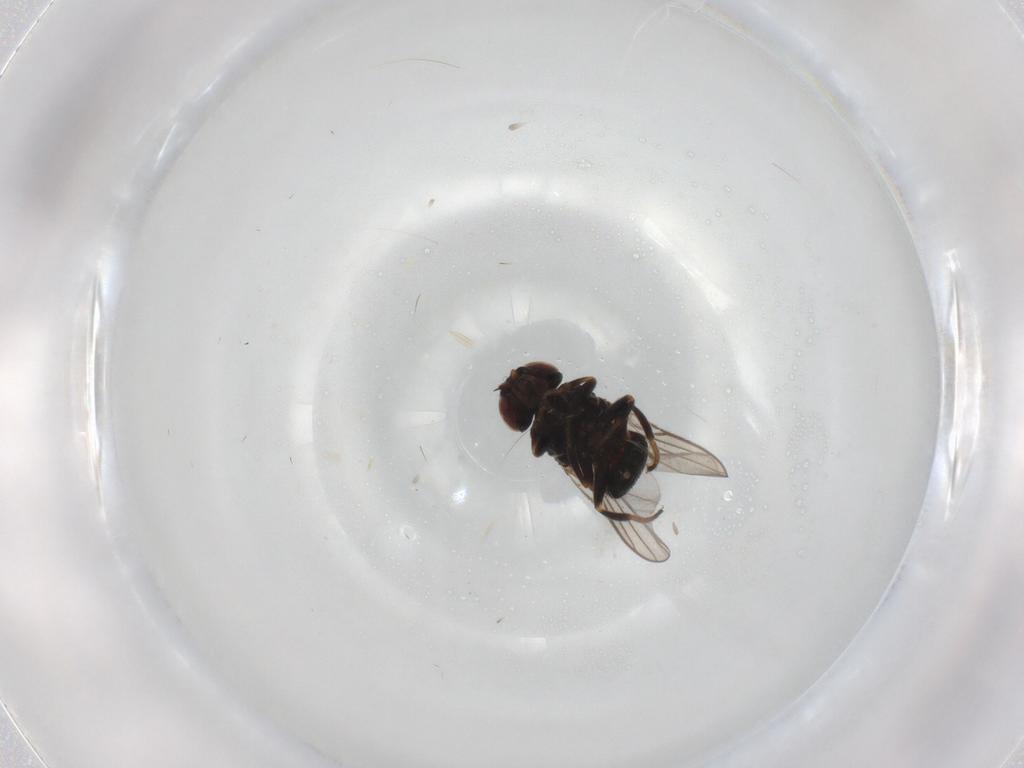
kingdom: Animalia
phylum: Arthropoda
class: Insecta
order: Diptera
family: Chloropidae
